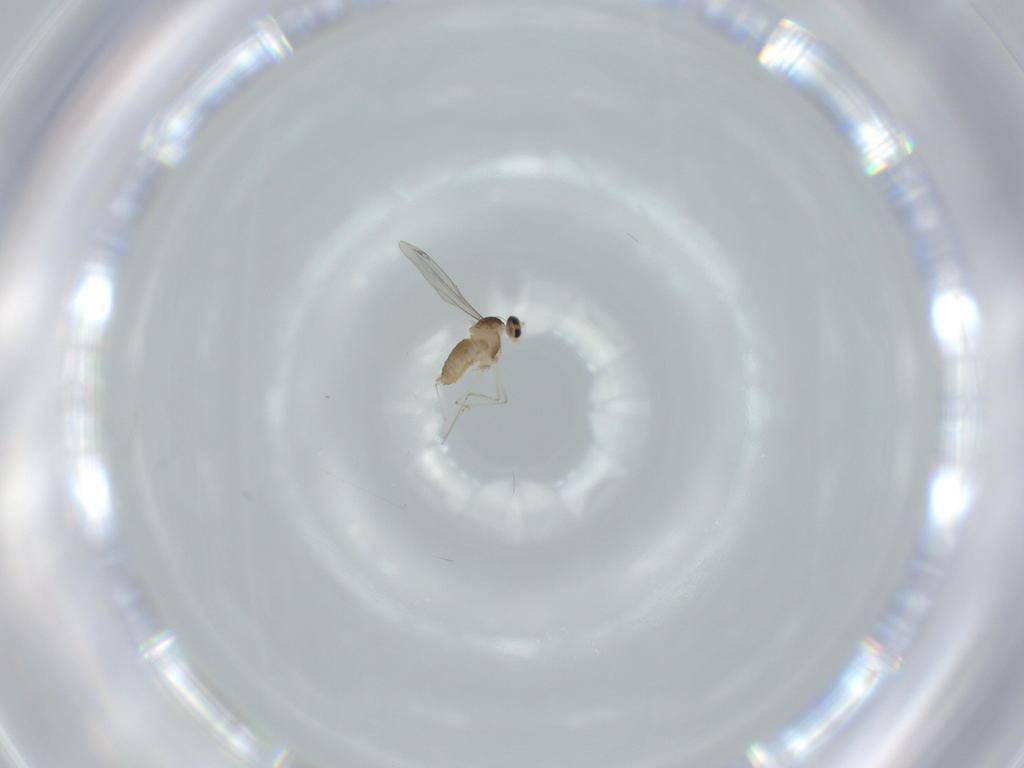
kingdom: Animalia
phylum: Arthropoda
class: Insecta
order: Diptera
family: Cecidomyiidae
